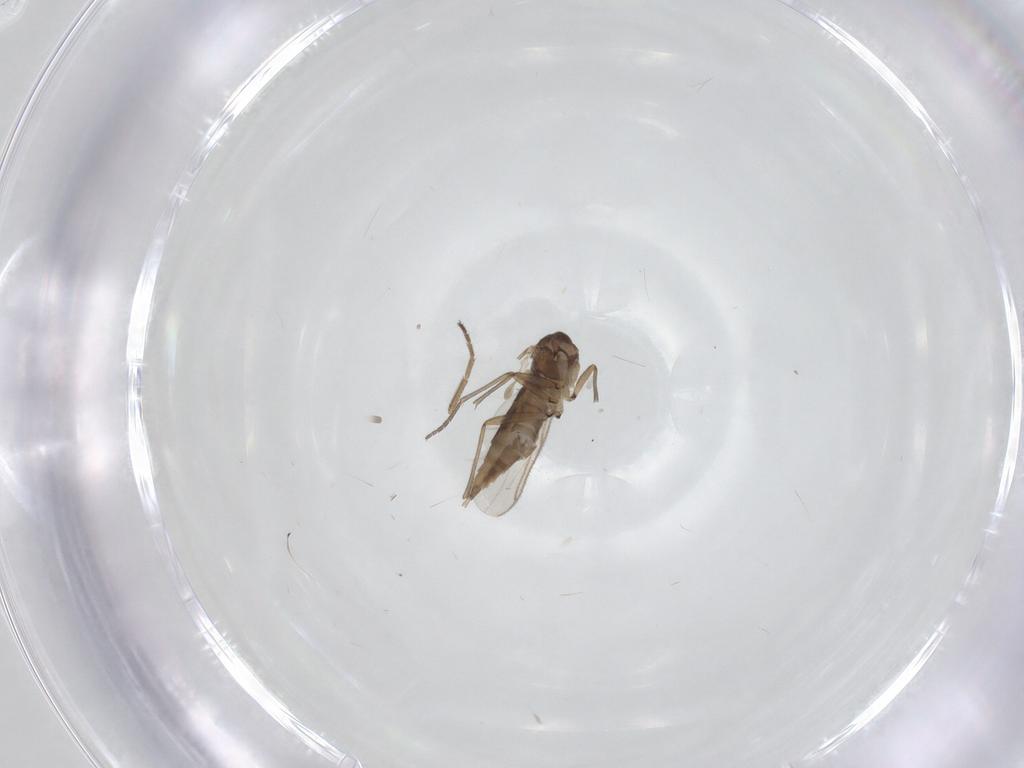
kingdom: Animalia
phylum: Arthropoda
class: Insecta
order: Diptera
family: Agromyzidae
